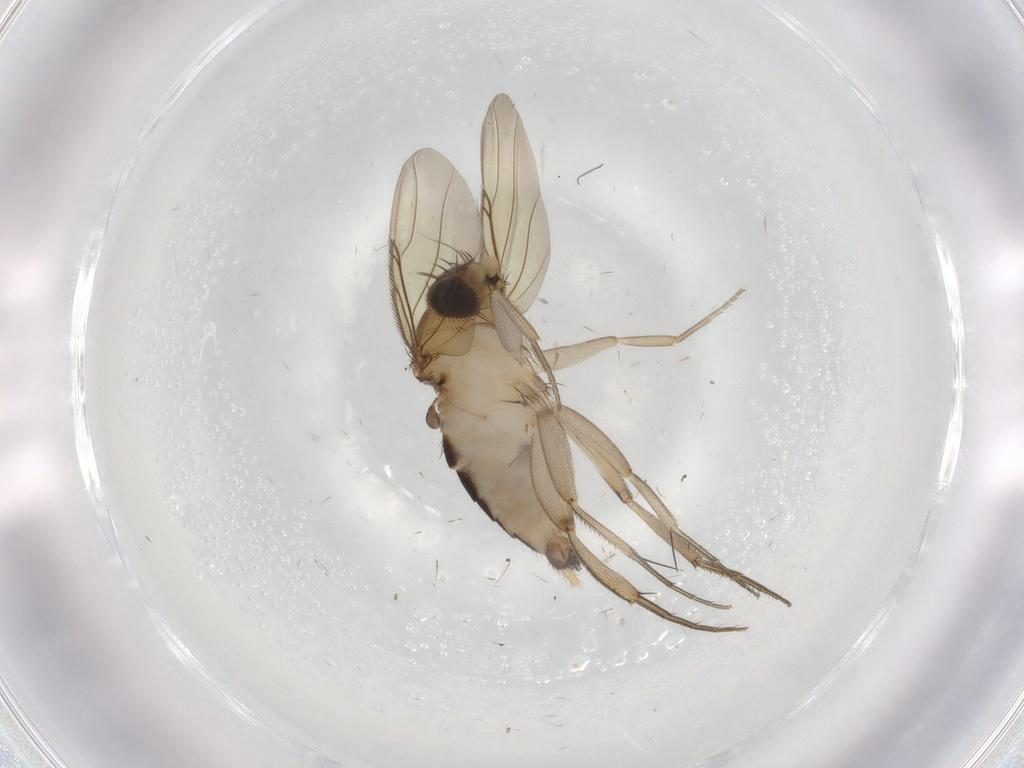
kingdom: Animalia
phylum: Arthropoda
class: Insecta
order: Diptera
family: Phoridae
